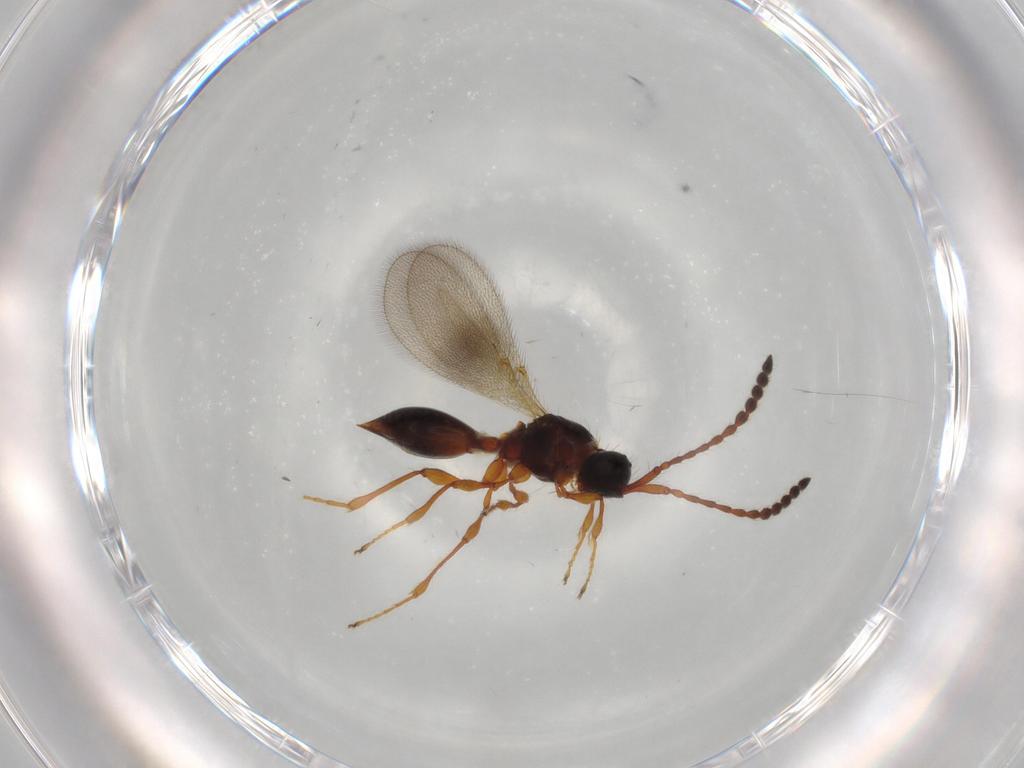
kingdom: Animalia
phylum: Arthropoda
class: Insecta
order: Hymenoptera
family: Diapriidae
